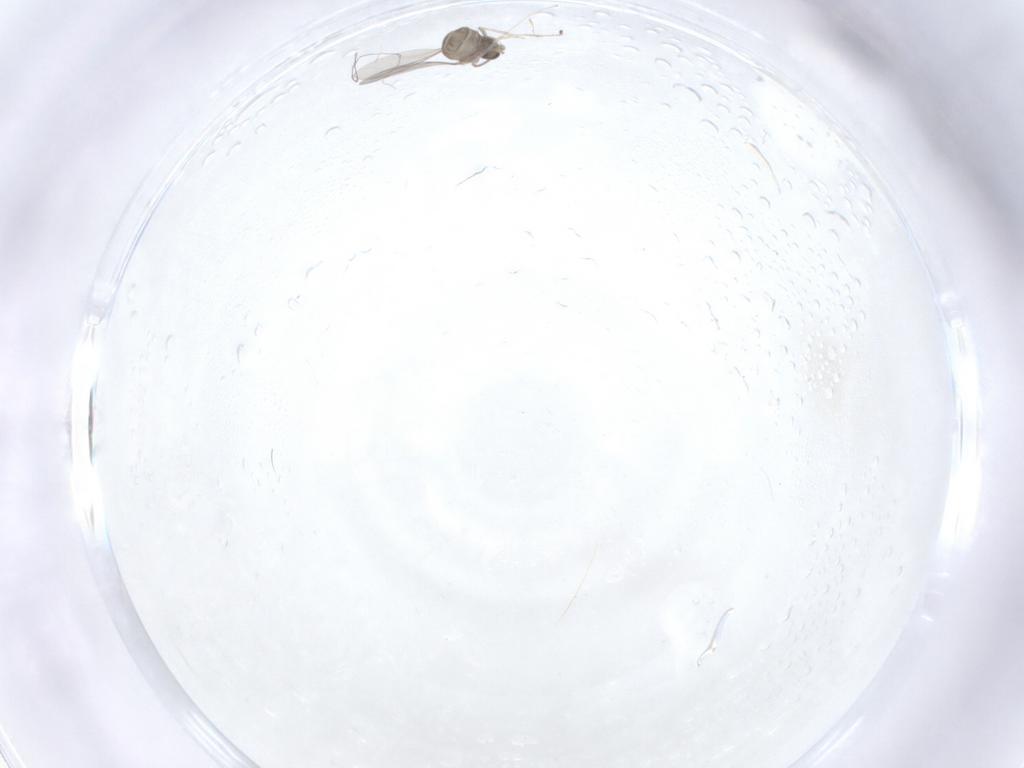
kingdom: Animalia
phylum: Arthropoda
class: Insecta
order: Diptera
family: Cecidomyiidae
